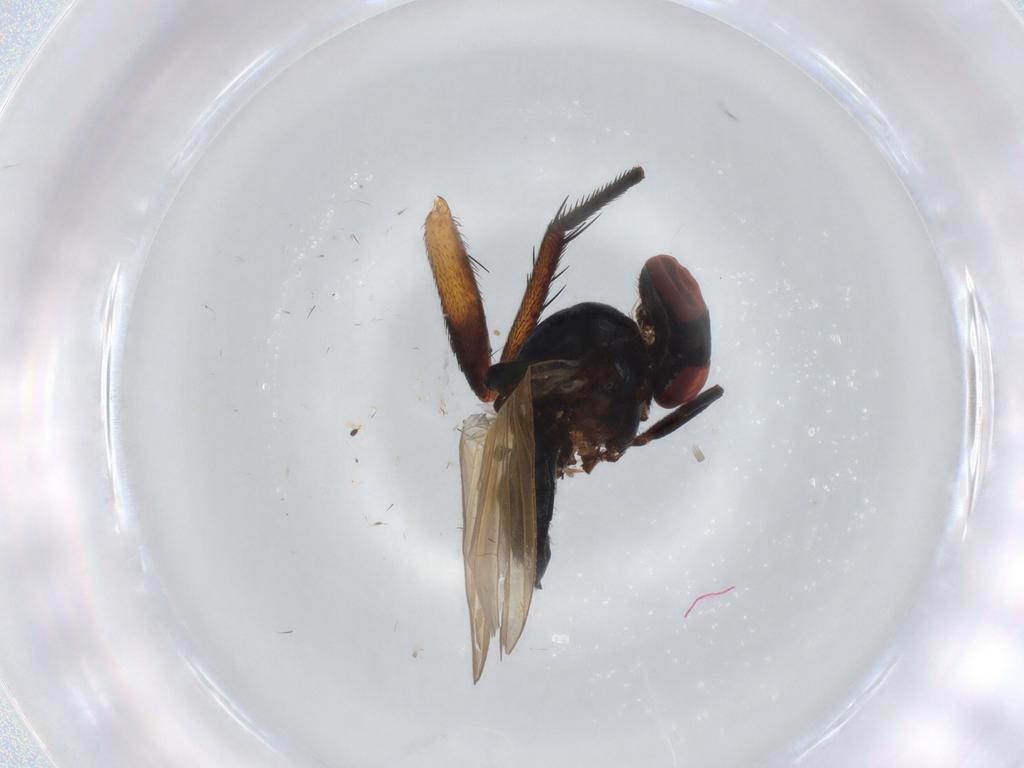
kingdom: Animalia
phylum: Arthropoda
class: Insecta
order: Diptera
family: Lonchaeidae
